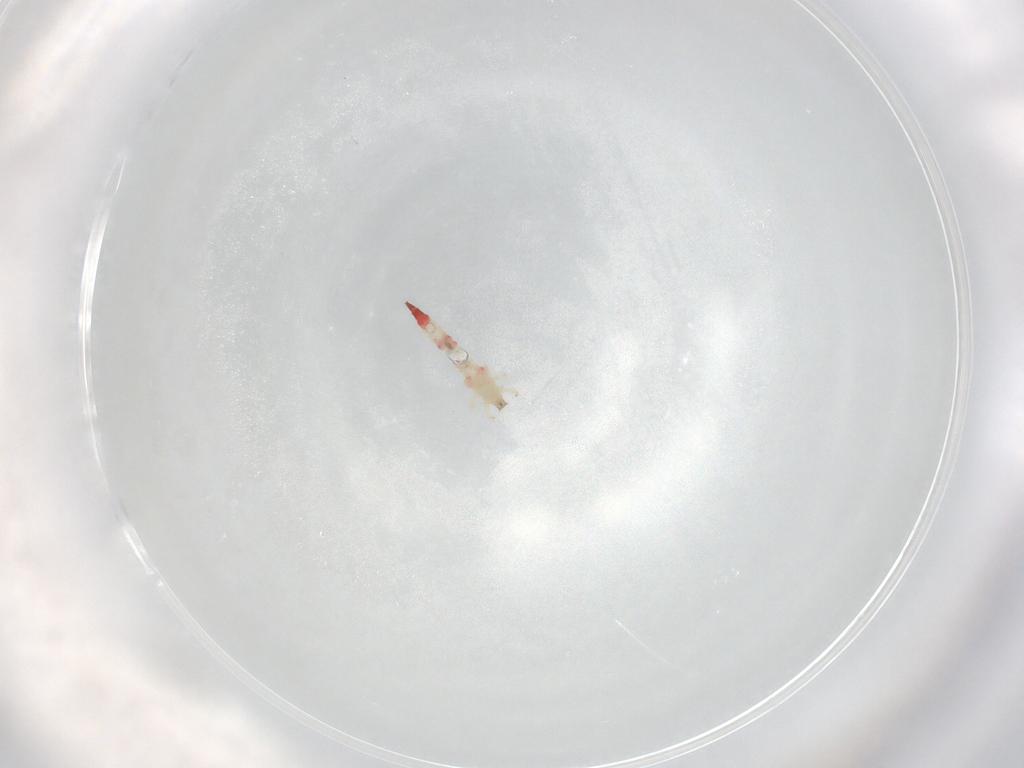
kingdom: Animalia
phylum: Arthropoda
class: Insecta
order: Thysanoptera
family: Phlaeothripidae
